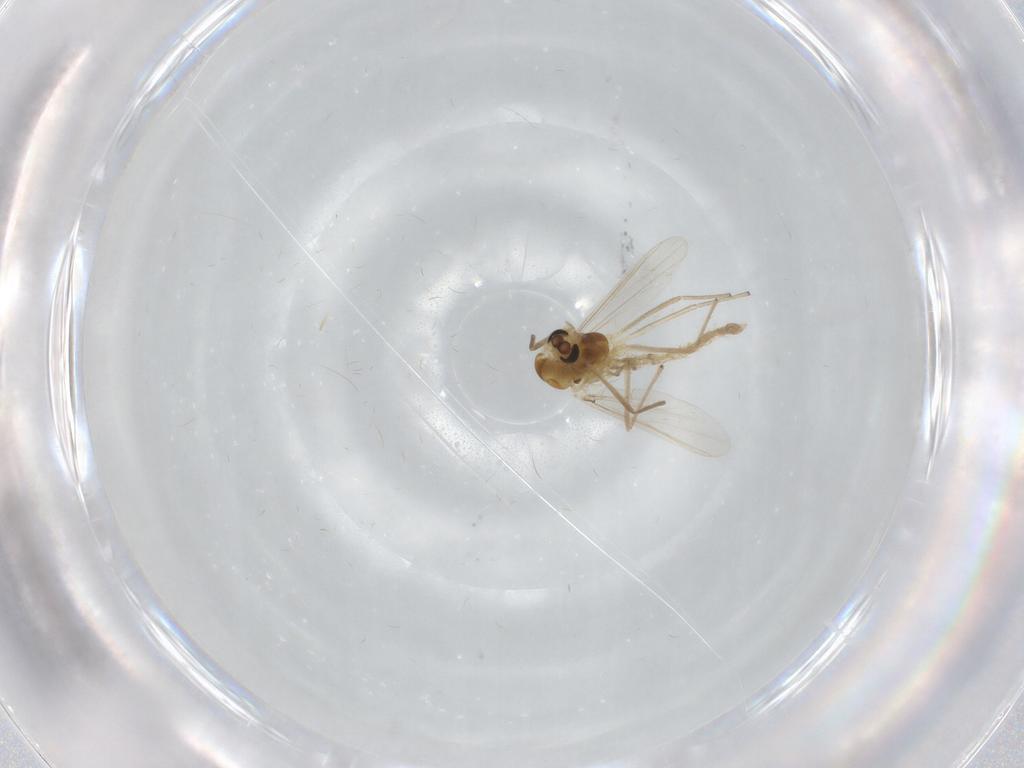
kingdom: Animalia
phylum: Arthropoda
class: Insecta
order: Diptera
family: Chironomidae
